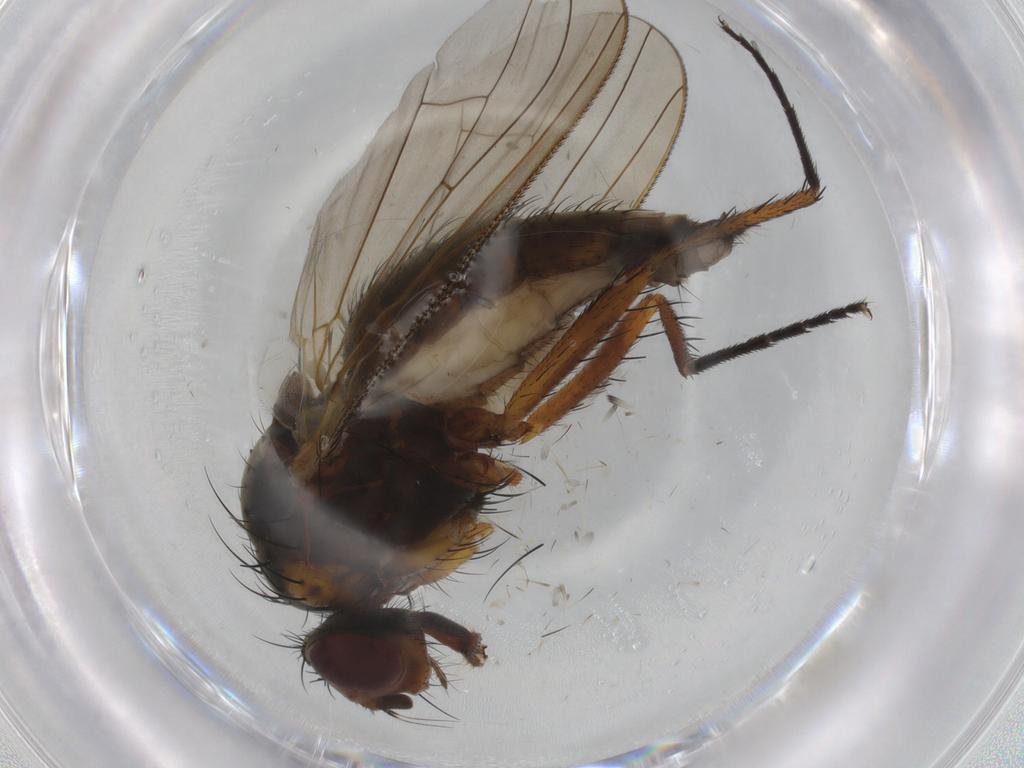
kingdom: Animalia
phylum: Arthropoda
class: Insecta
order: Diptera
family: Anthomyiidae
